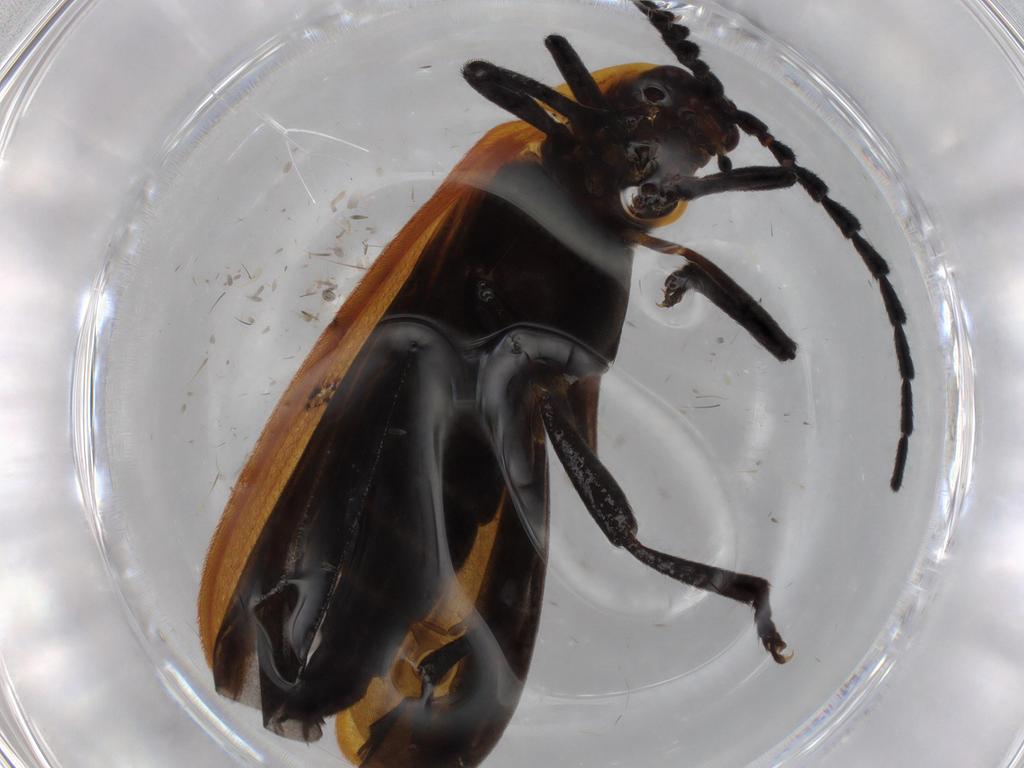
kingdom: Animalia
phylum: Arthropoda
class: Insecta
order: Coleoptera
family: Lycidae
